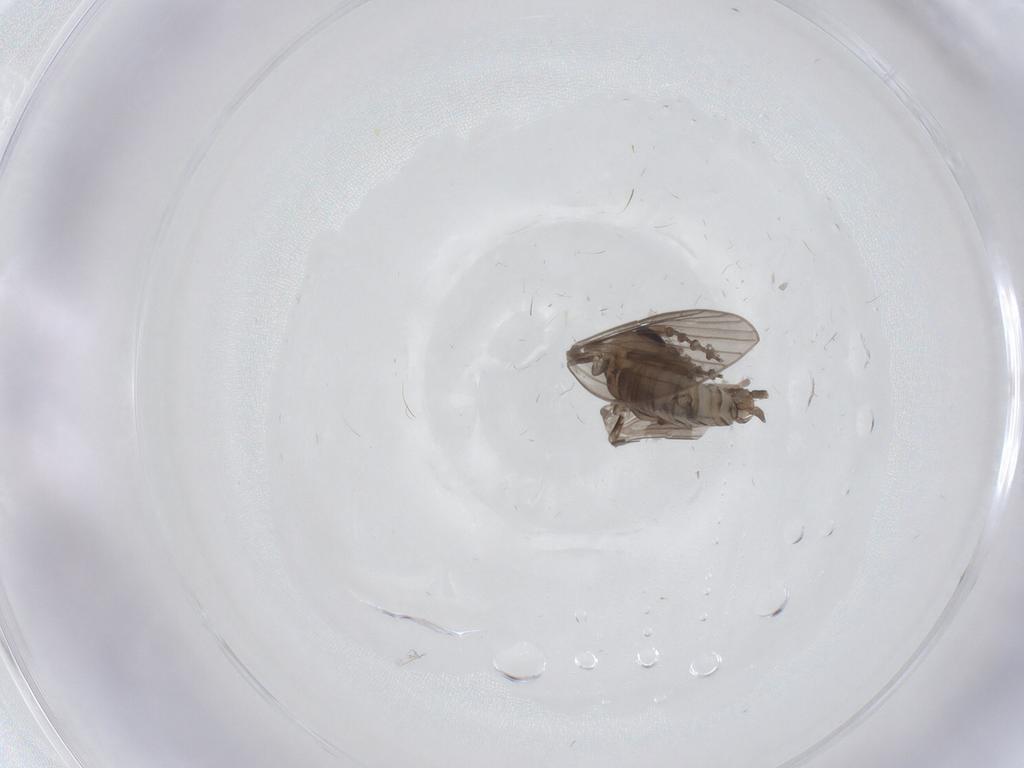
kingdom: Animalia
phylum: Arthropoda
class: Insecta
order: Diptera
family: Psychodidae
